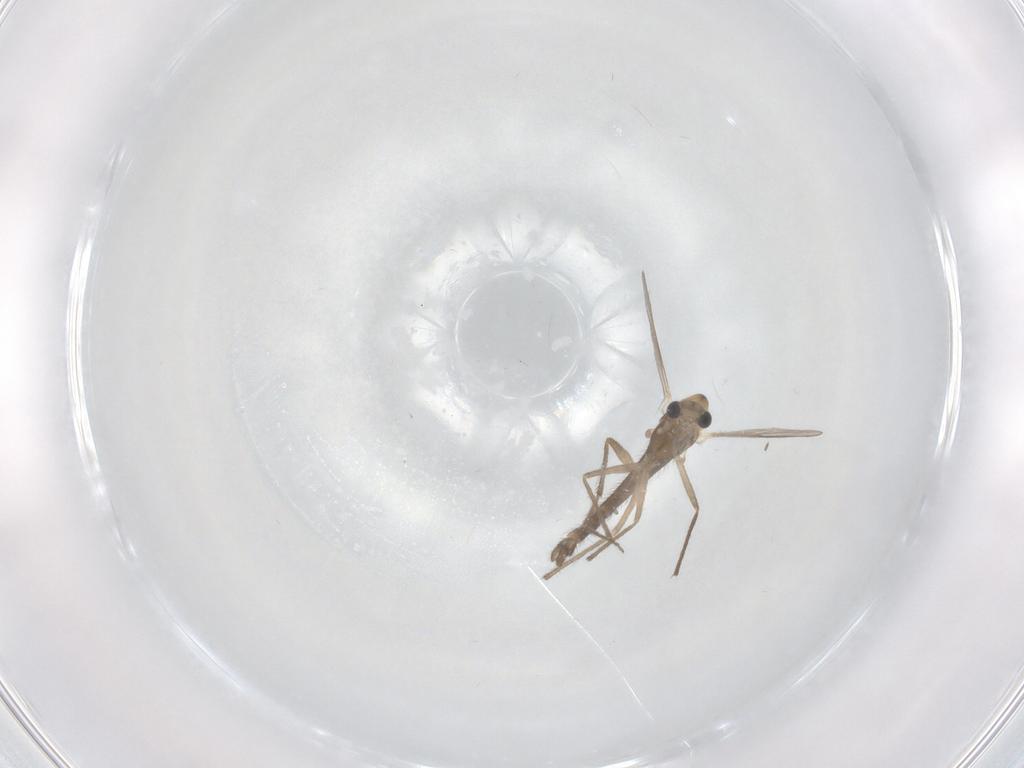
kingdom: Animalia
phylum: Arthropoda
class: Insecta
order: Diptera
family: Chironomidae
